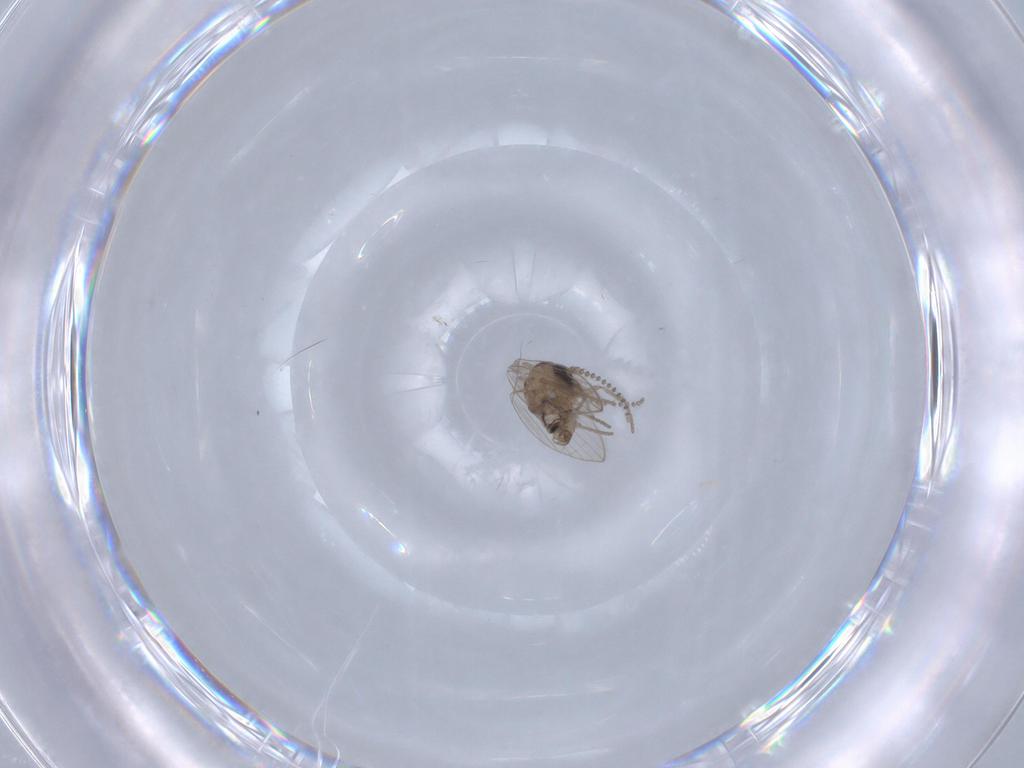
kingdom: Animalia
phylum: Arthropoda
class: Insecta
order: Diptera
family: Psychodidae
